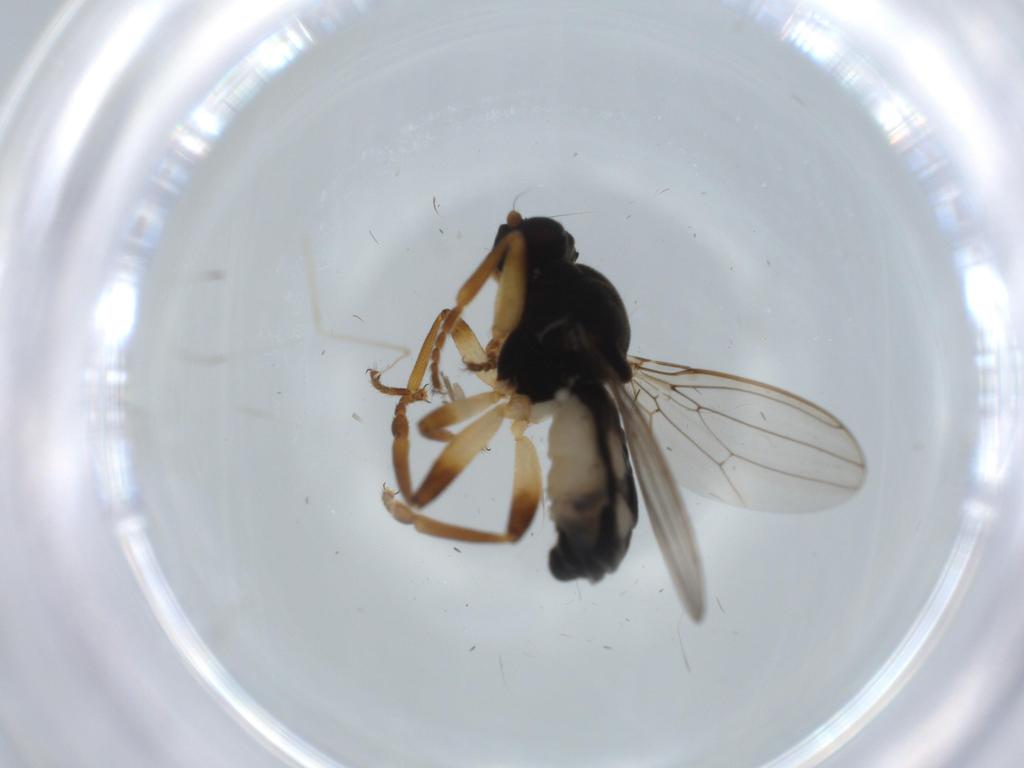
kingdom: Animalia
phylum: Arthropoda
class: Insecta
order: Diptera
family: Sphaeroceridae
